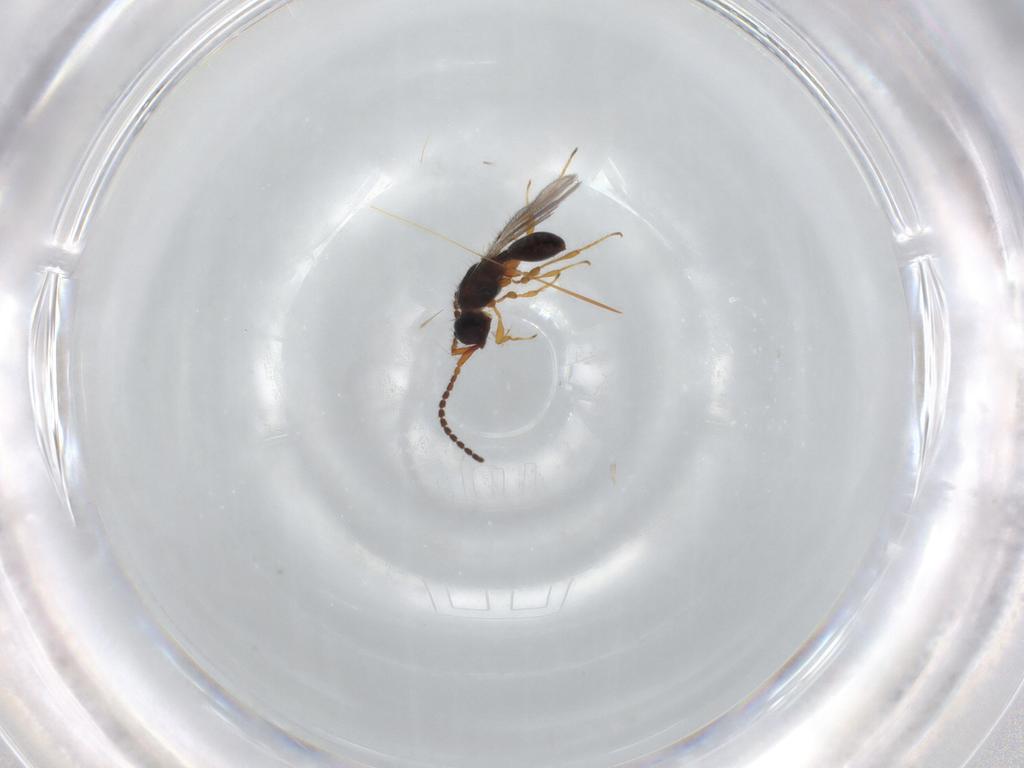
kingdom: Animalia
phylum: Arthropoda
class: Insecta
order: Hymenoptera
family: Diapriidae
